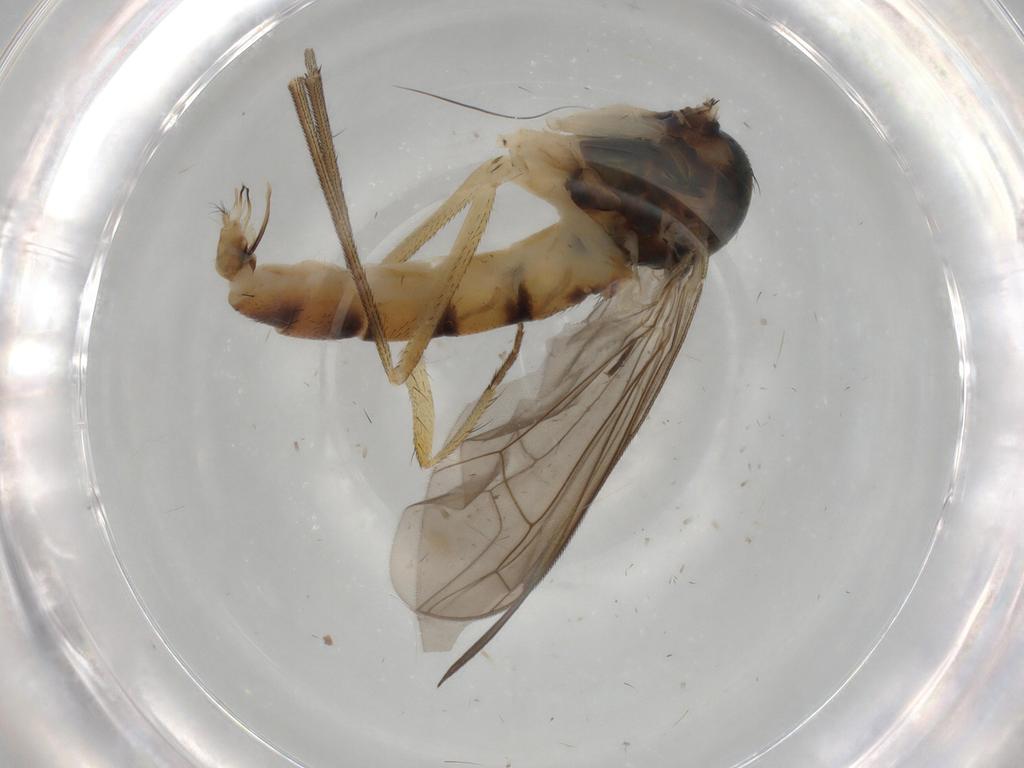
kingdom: Animalia
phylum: Arthropoda
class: Insecta
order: Diptera
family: Dolichopodidae
